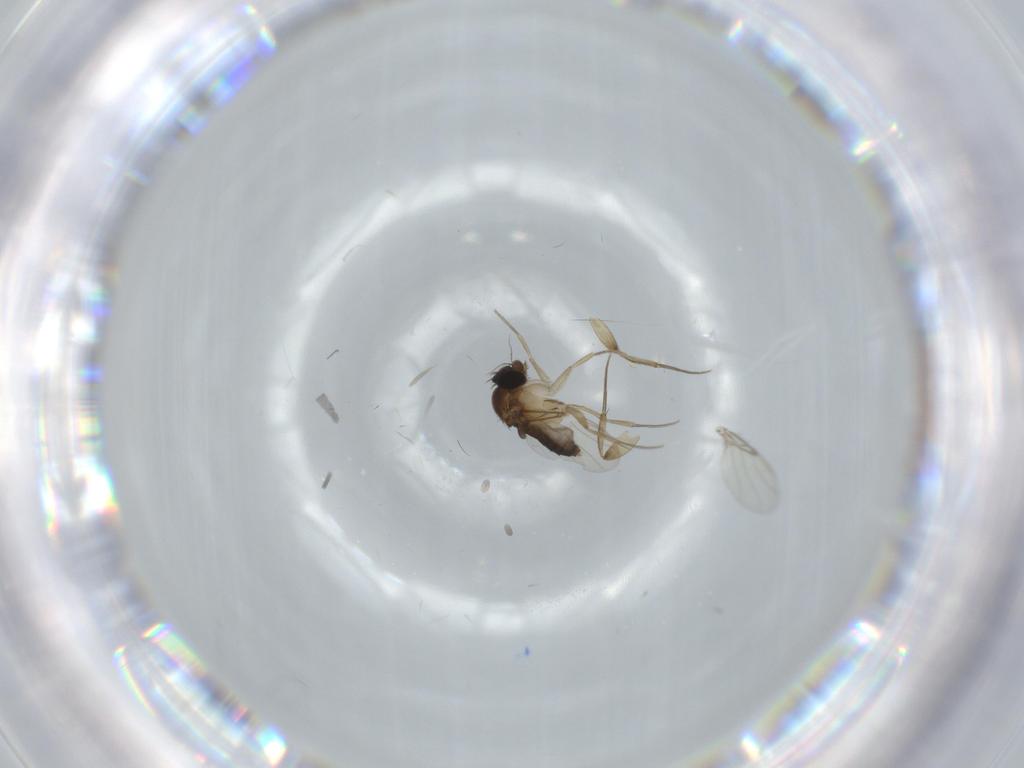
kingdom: Animalia
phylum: Arthropoda
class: Insecta
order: Diptera
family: Phoridae
